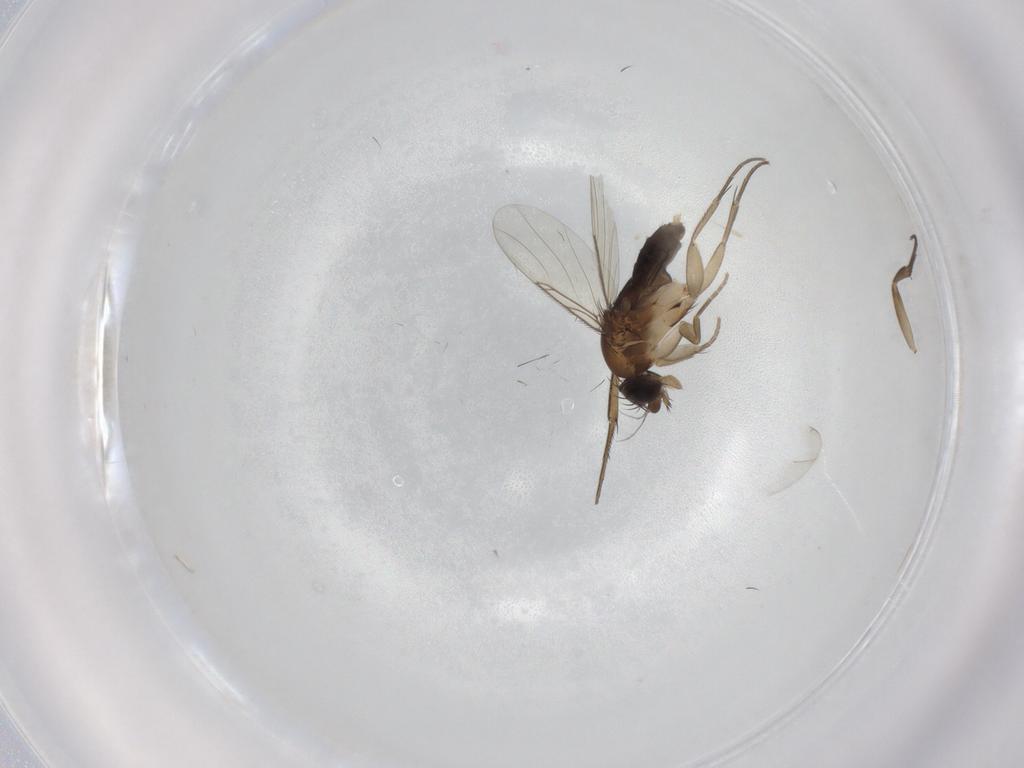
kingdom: Animalia
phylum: Arthropoda
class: Insecta
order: Diptera
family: Phoridae
